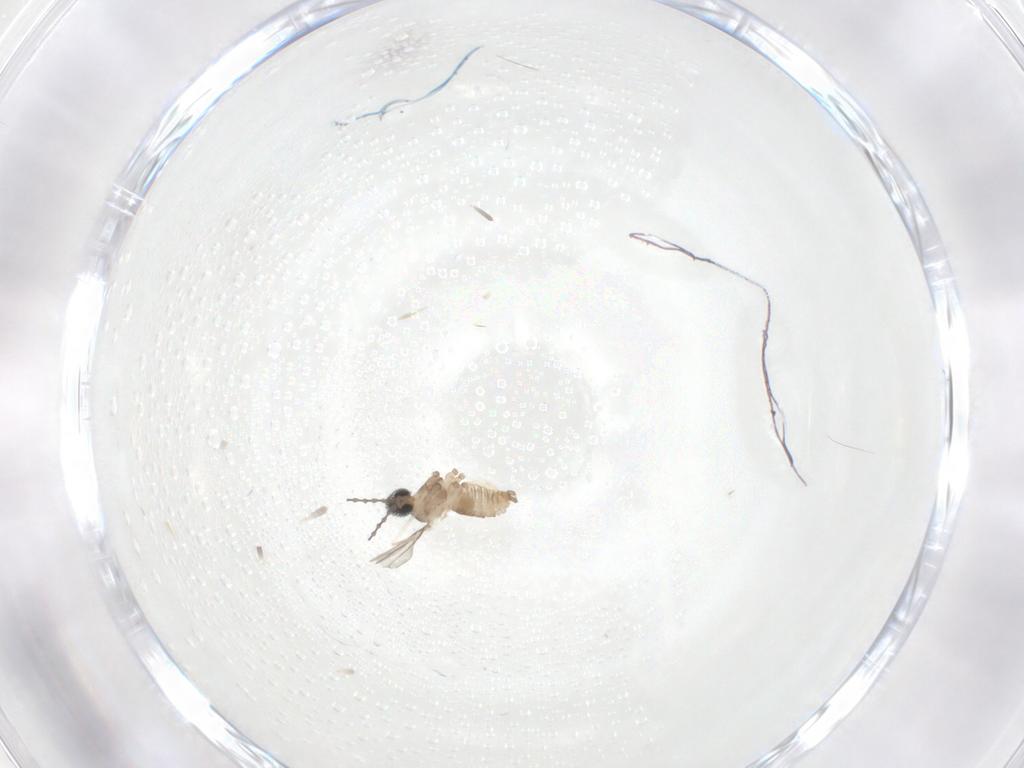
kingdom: Animalia
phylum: Arthropoda
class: Insecta
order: Diptera
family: Cecidomyiidae
